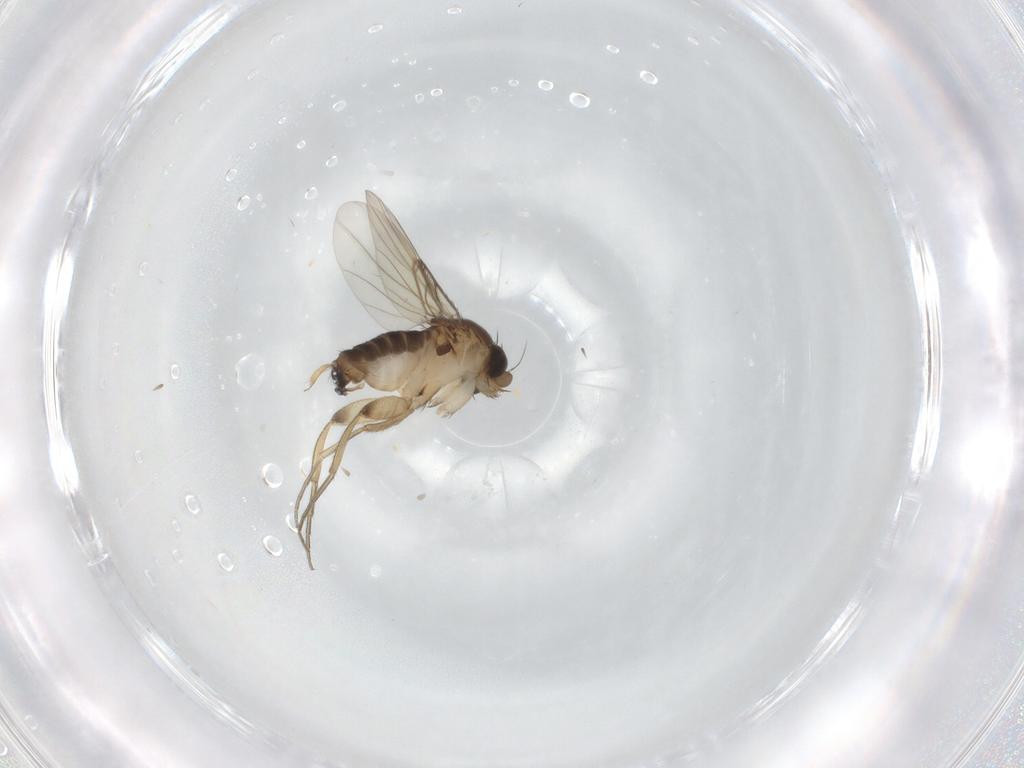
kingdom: Animalia
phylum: Arthropoda
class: Insecta
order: Diptera
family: Phoridae
